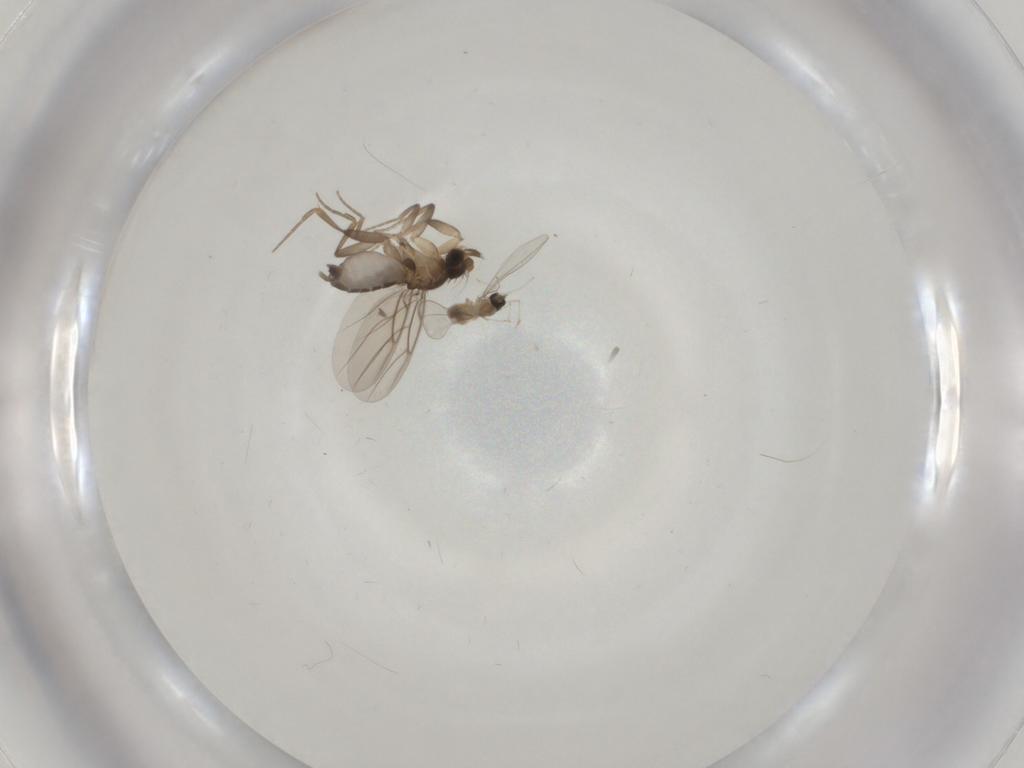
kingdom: Animalia
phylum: Arthropoda
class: Insecta
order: Diptera
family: Cecidomyiidae
